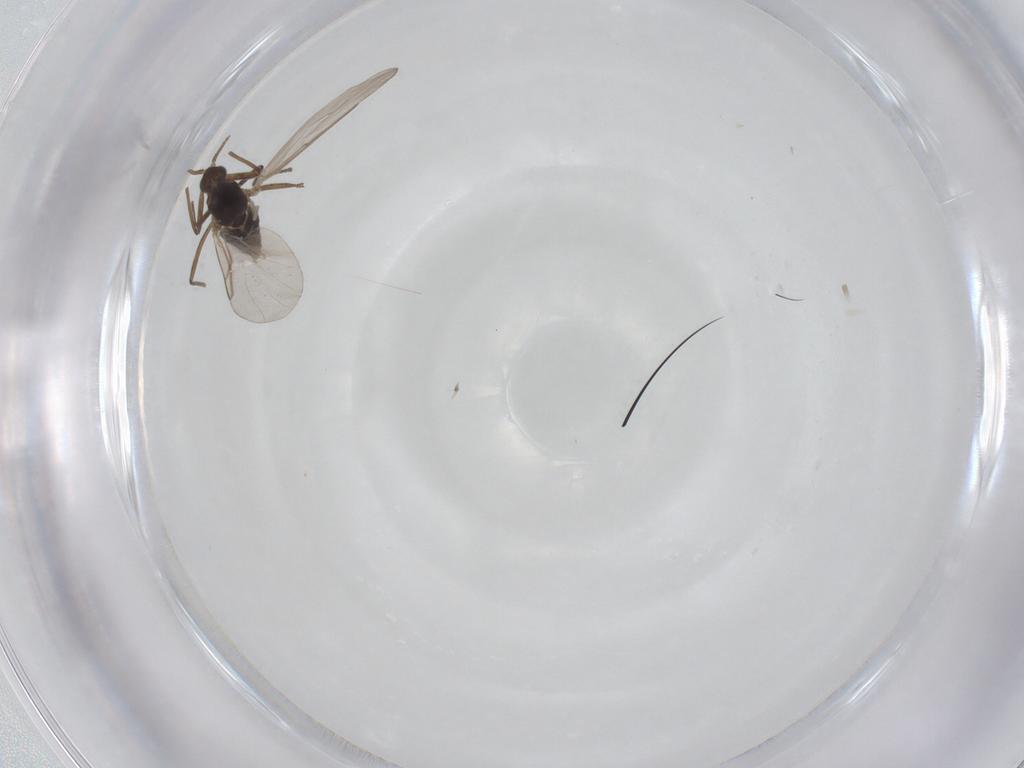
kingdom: Animalia
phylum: Arthropoda
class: Insecta
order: Diptera
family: Cecidomyiidae
